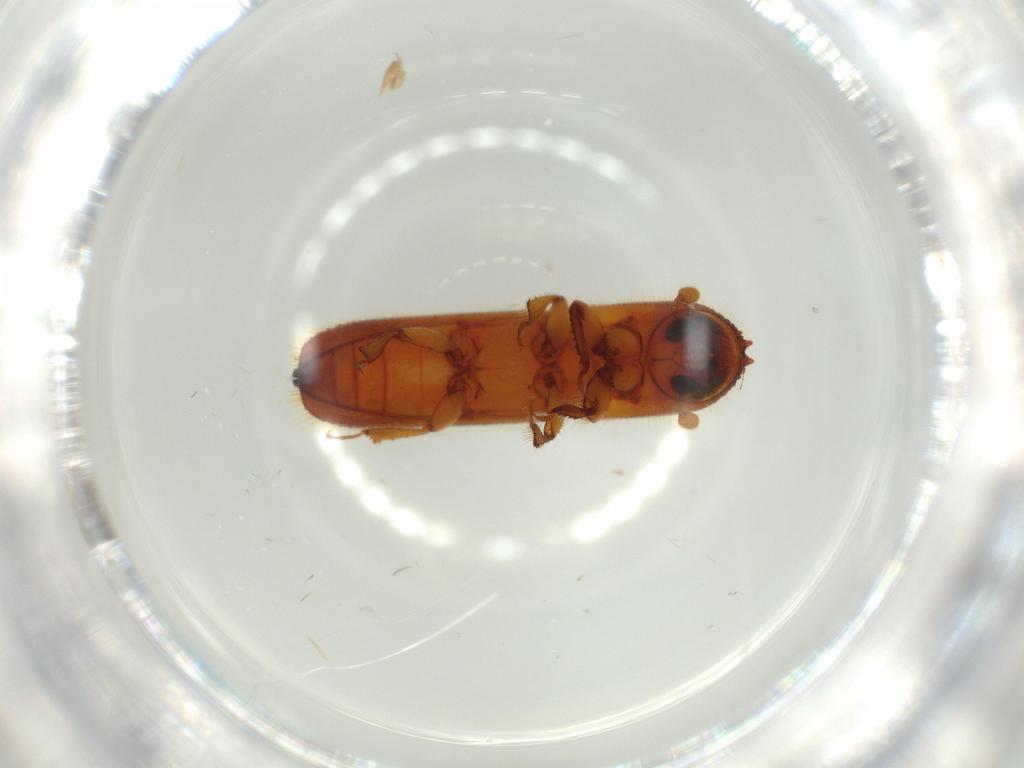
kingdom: Animalia
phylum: Arthropoda
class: Insecta
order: Coleoptera
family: Curculionidae
